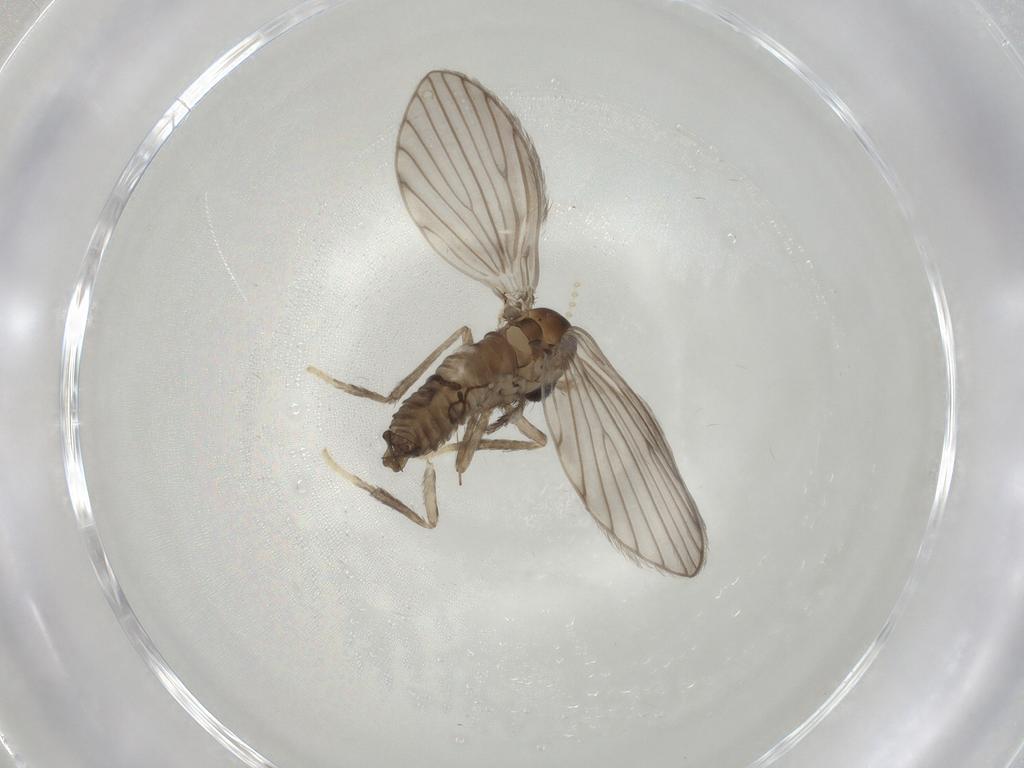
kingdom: Animalia
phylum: Arthropoda
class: Insecta
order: Diptera
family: Psychodidae
